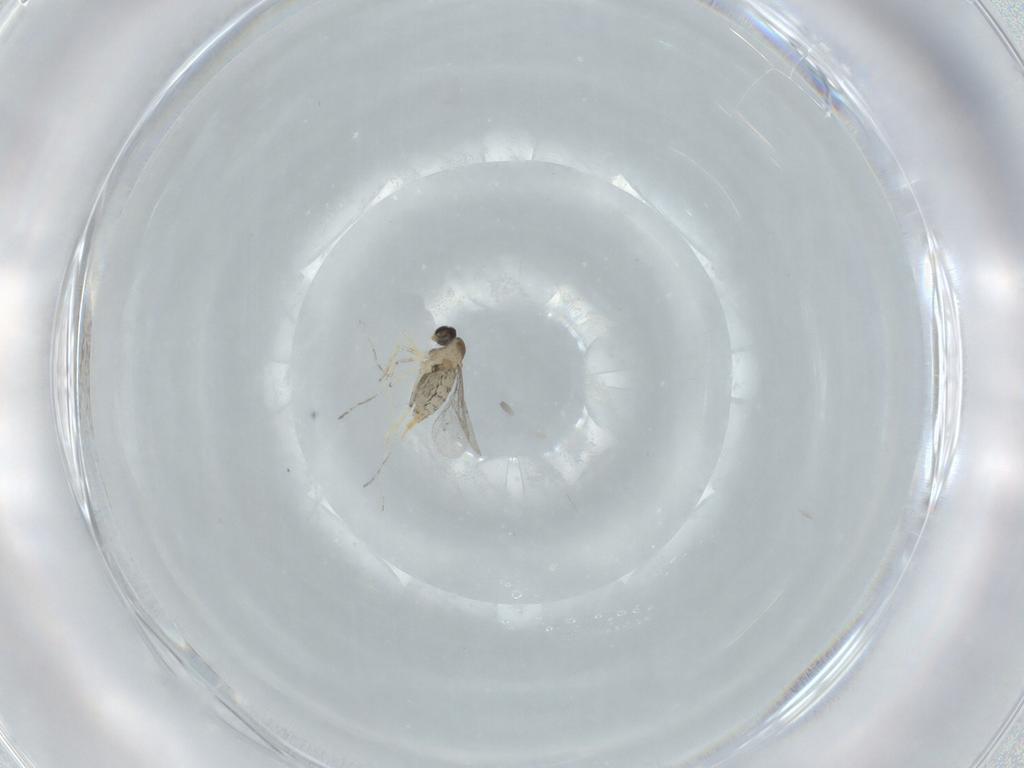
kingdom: Animalia
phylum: Arthropoda
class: Insecta
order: Diptera
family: Cecidomyiidae
